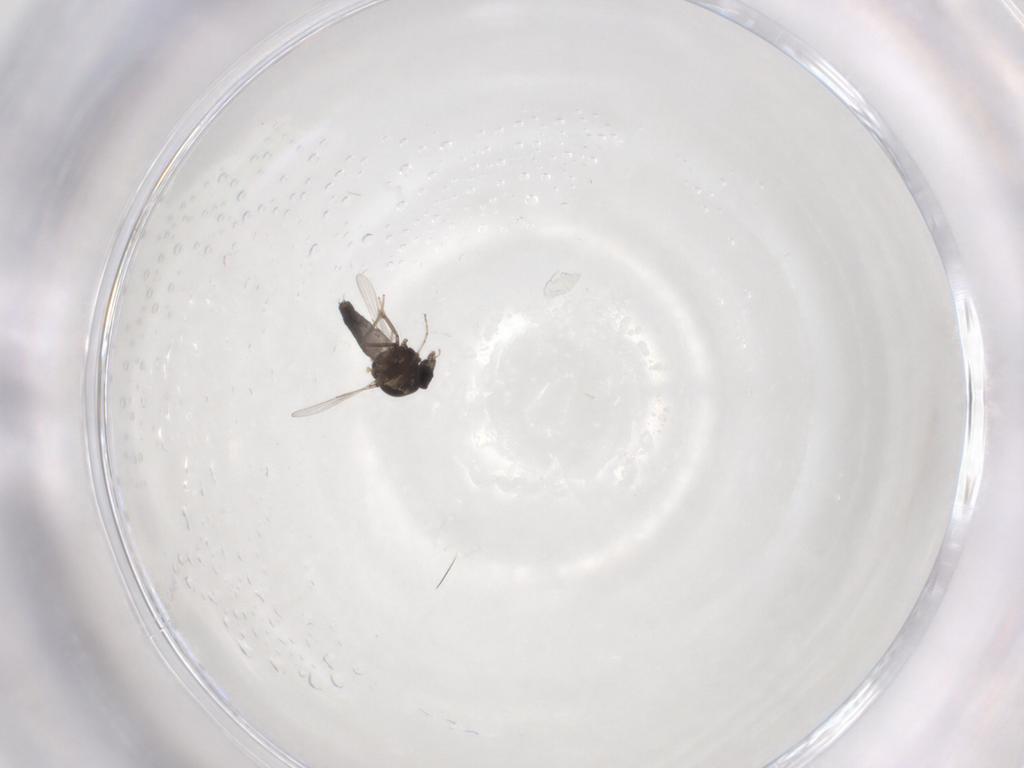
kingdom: Animalia
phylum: Arthropoda
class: Insecta
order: Diptera
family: Ceratopogonidae
